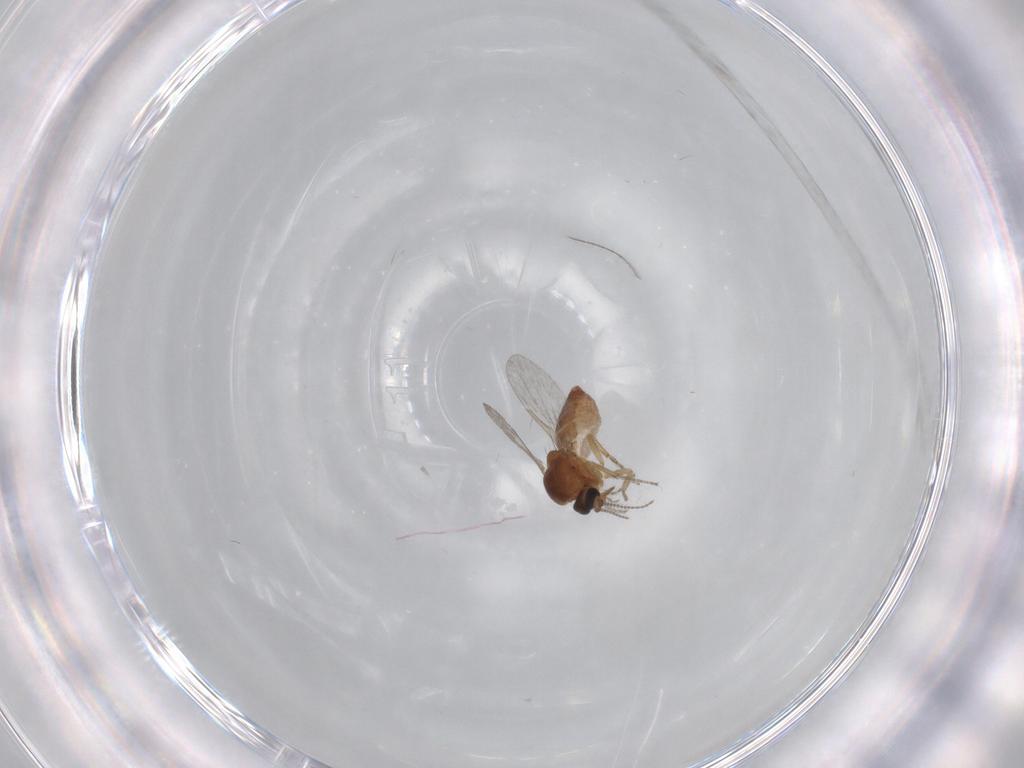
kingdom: Animalia
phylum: Arthropoda
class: Insecta
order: Diptera
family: Ceratopogonidae
